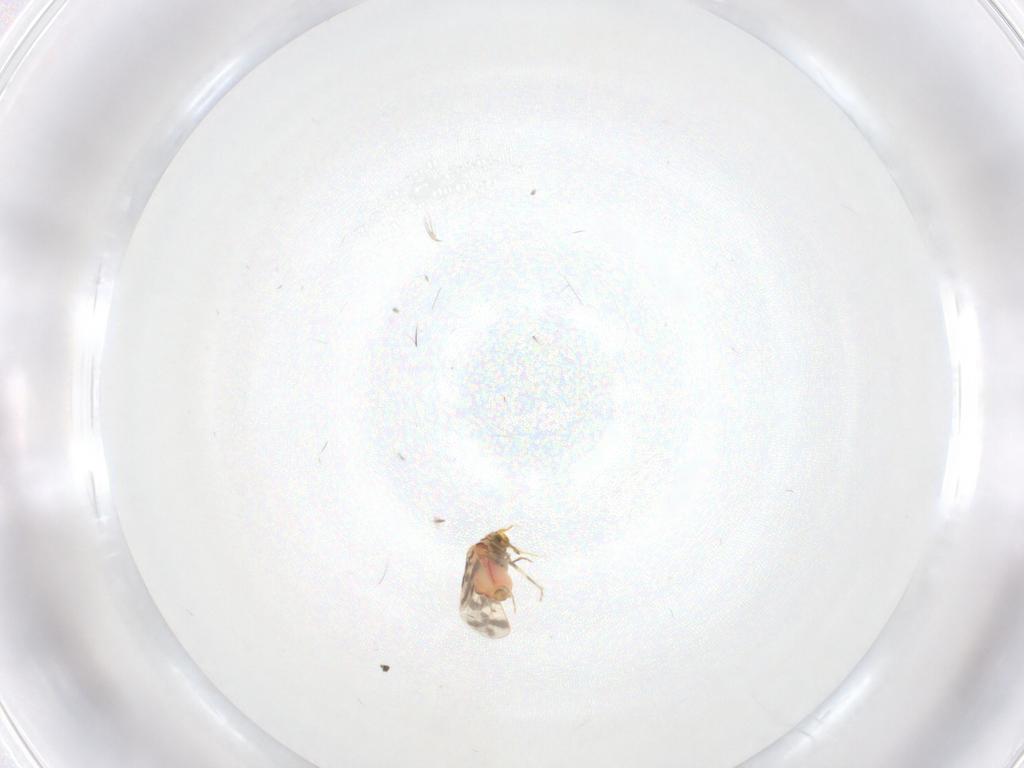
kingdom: Animalia
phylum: Arthropoda
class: Insecta
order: Hemiptera
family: Aleyrodidae
